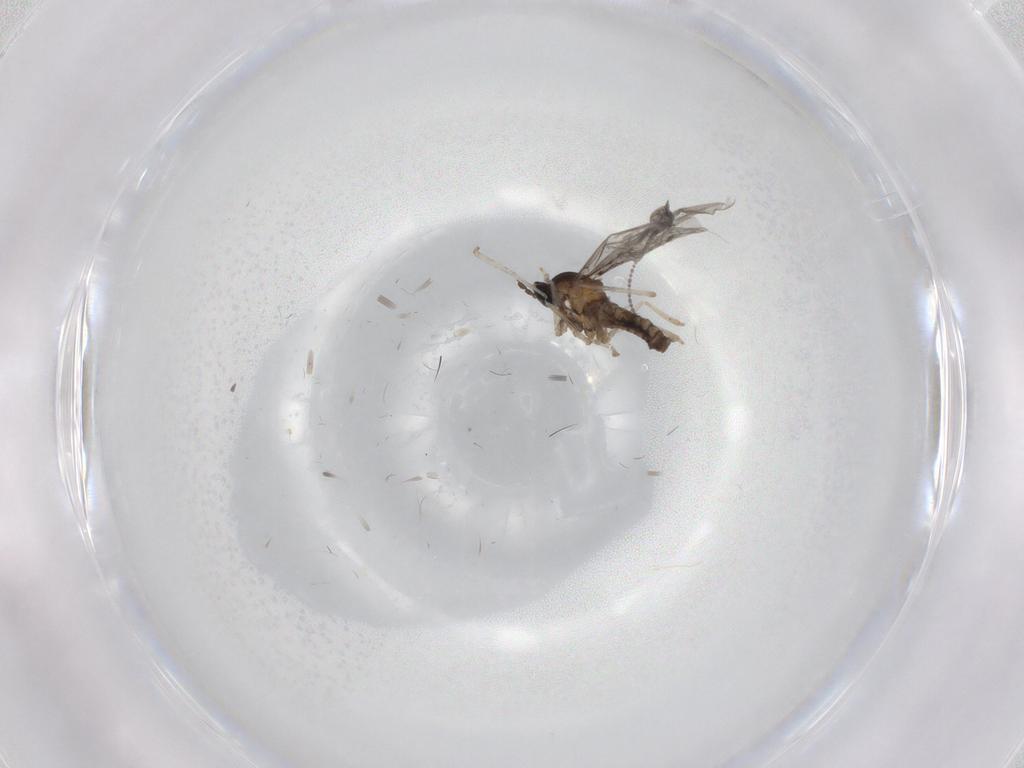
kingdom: Animalia
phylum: Arthropoda
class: Insecta
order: Diptera
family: Cecidomyiidae
